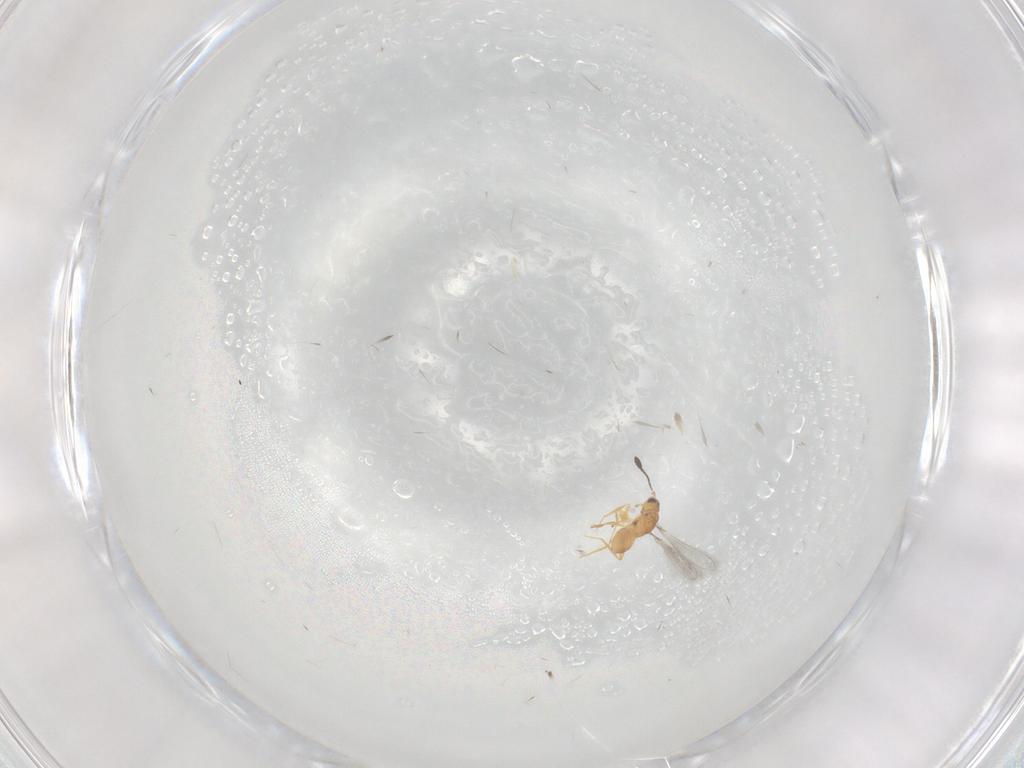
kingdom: Animalia
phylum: Arthropoda
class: Insecta
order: Hymenoptera
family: Mymaridae
